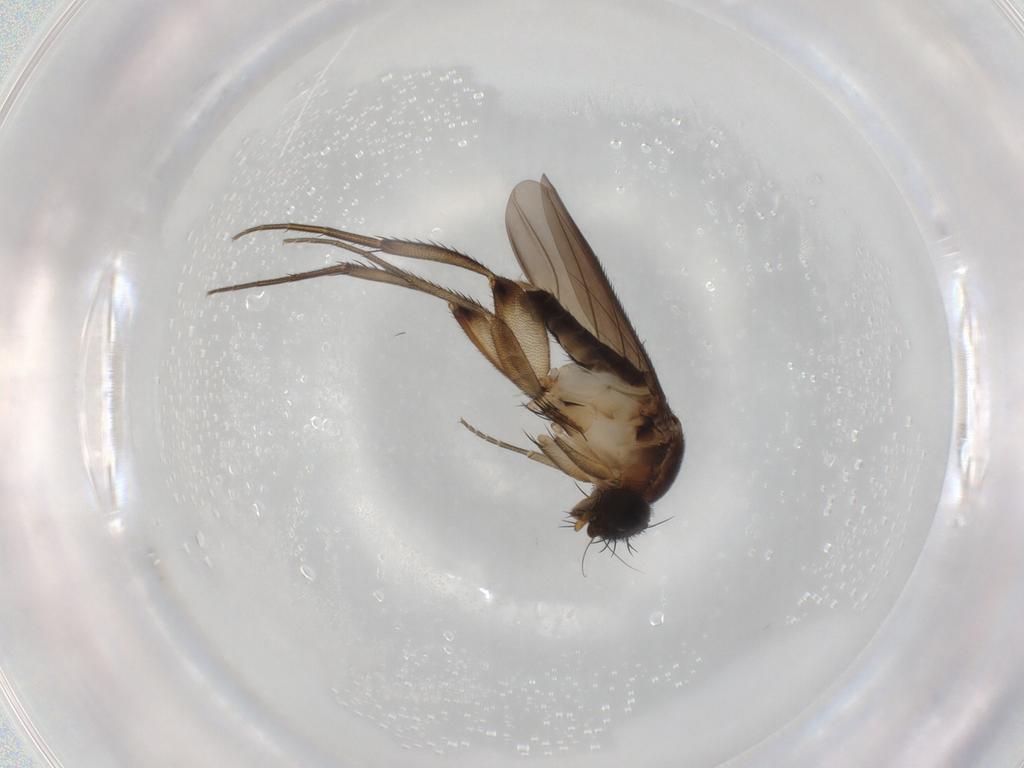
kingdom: Animalia
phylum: Arthropoda
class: Insecta
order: Diptera
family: Phoridae
